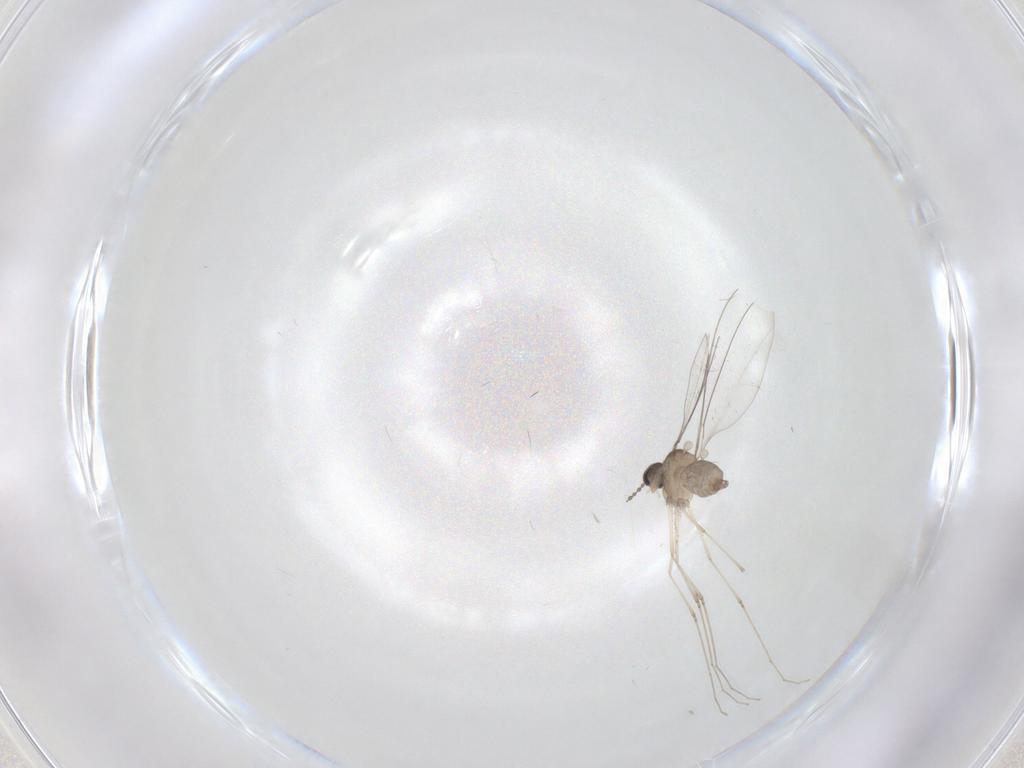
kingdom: Animalia
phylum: Arthropoda
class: Insecta
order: Diptera
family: Cecidomyiidae
